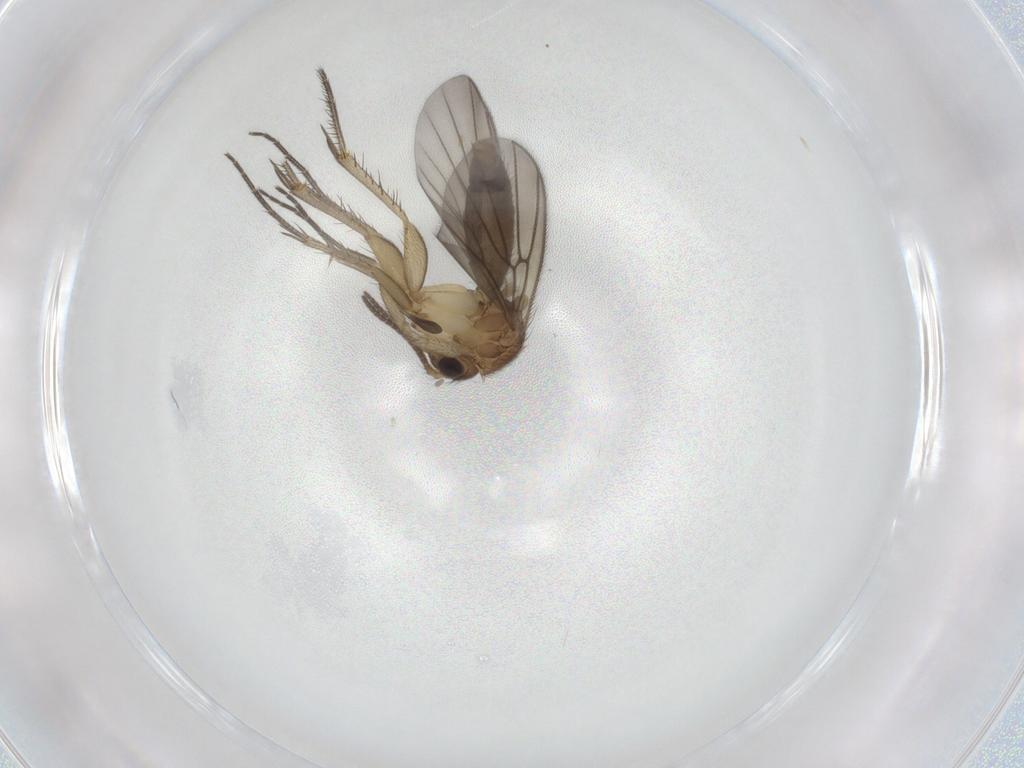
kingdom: Animalia
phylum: Arthropoda
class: Insecta
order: Diptera
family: Mycetophilidae
